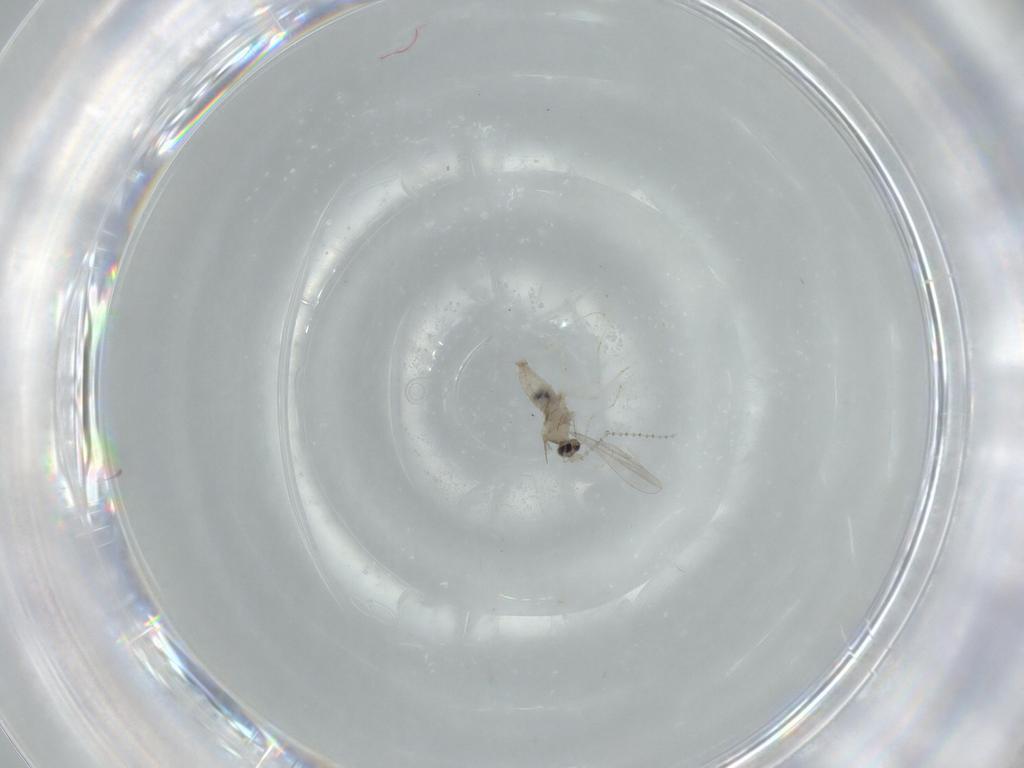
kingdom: Animalia
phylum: Arthropoda
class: Insecta
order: Diptera
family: Cecidomyiidae
